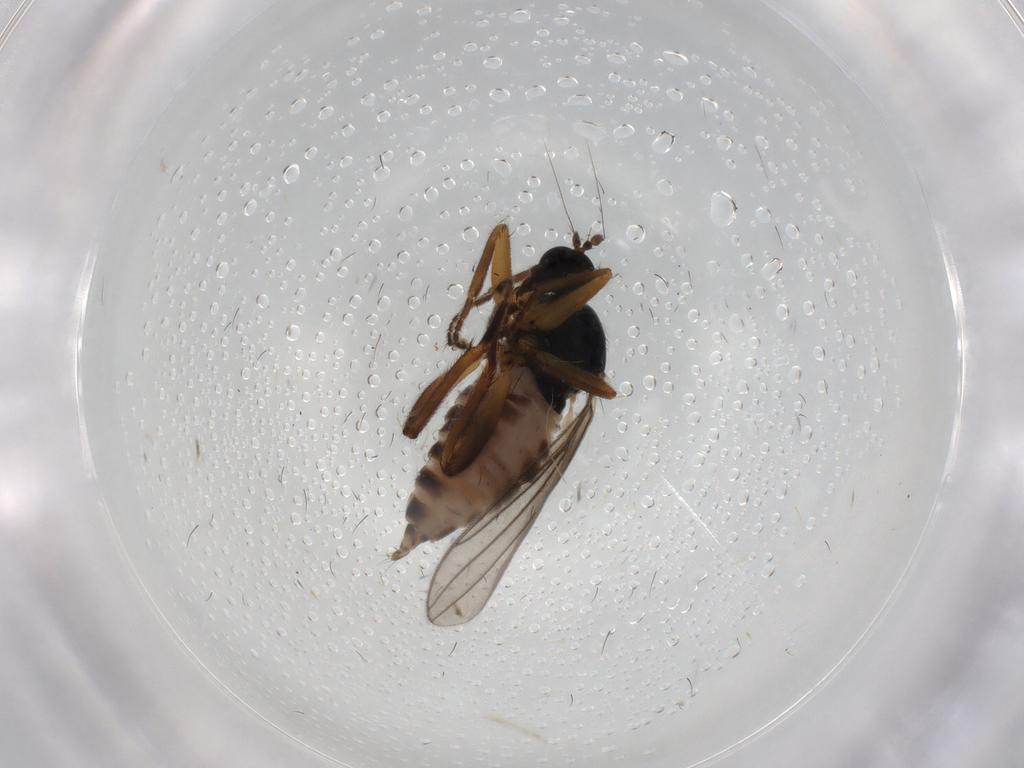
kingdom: Animalia
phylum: Arthropoda
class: Insecta
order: Diptera
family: Hybotidae
